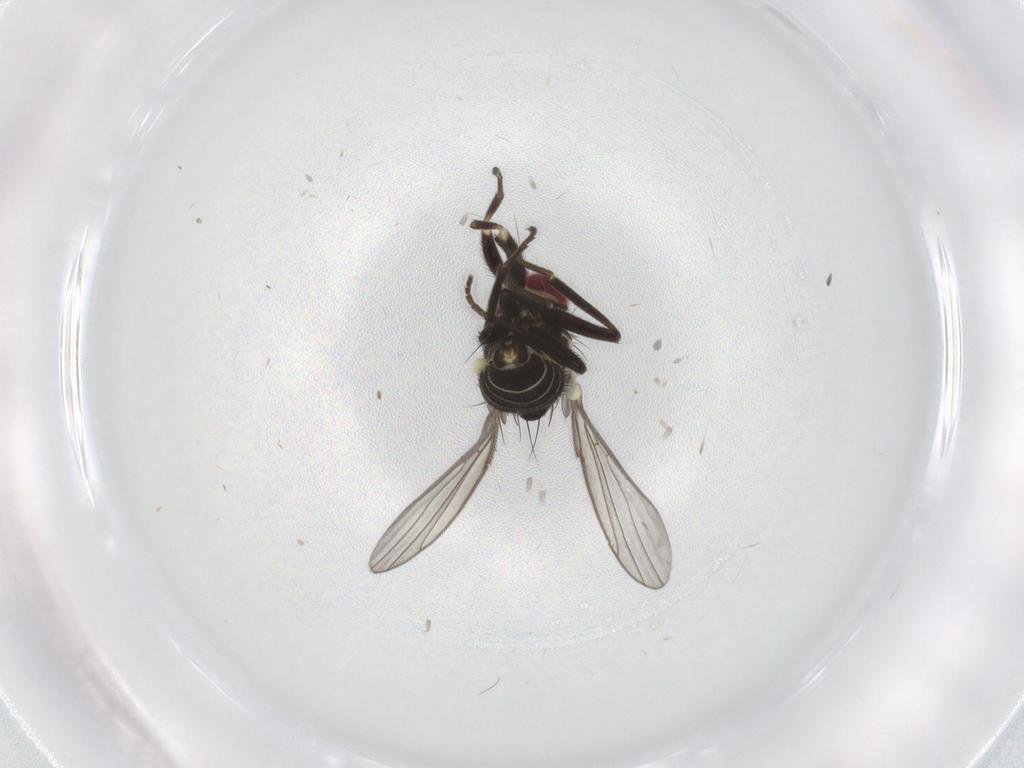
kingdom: Animalia
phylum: Arthropoda
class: Insecta
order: Diptera
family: Agromyzidae
